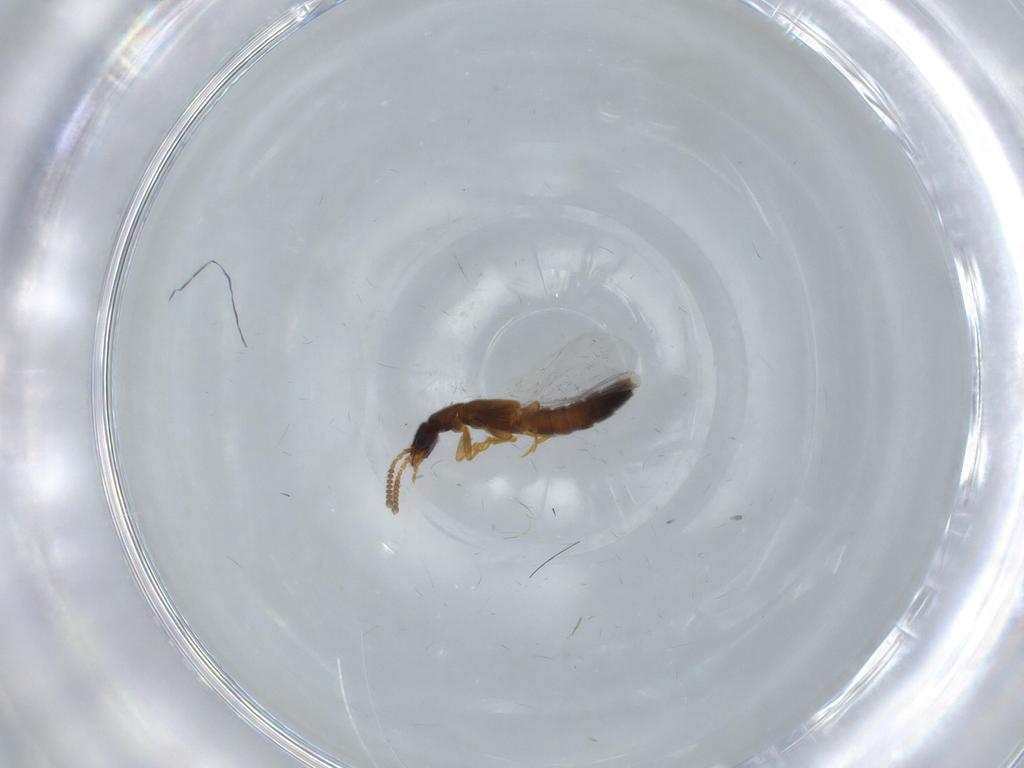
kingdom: Animalia
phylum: Arthropoda
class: Insecta
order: Coleoptera
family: Staphylinidae
